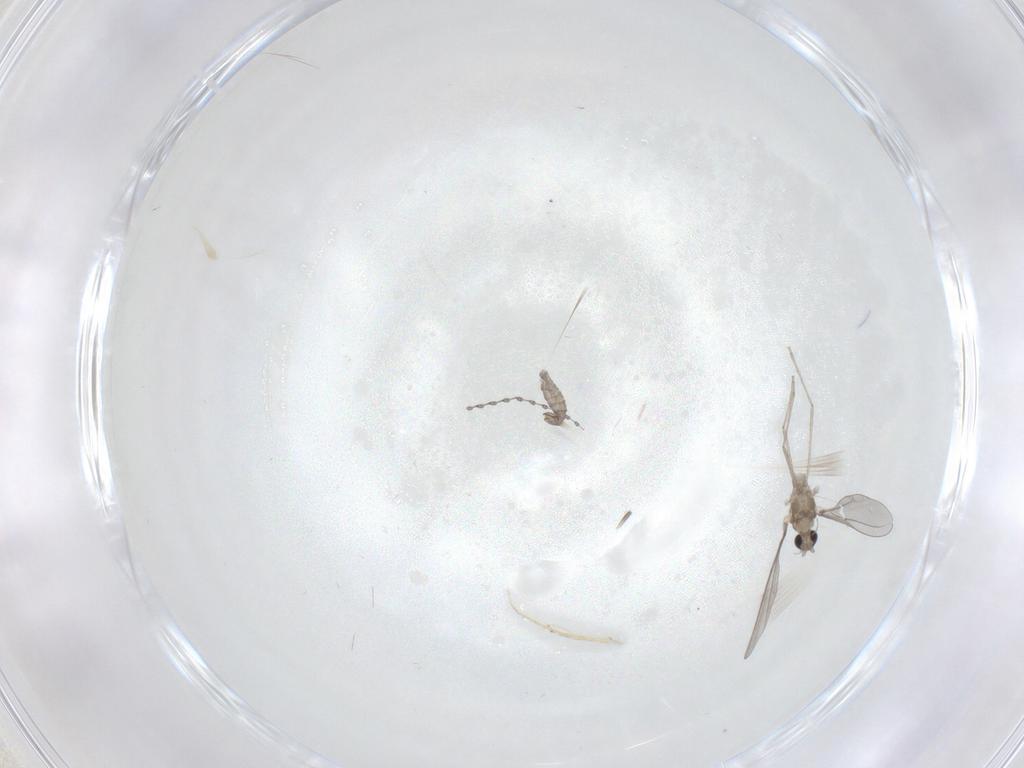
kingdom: Animalia
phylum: Arthropoda
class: Insecta
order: Diptera
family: Cecidomyiidae
